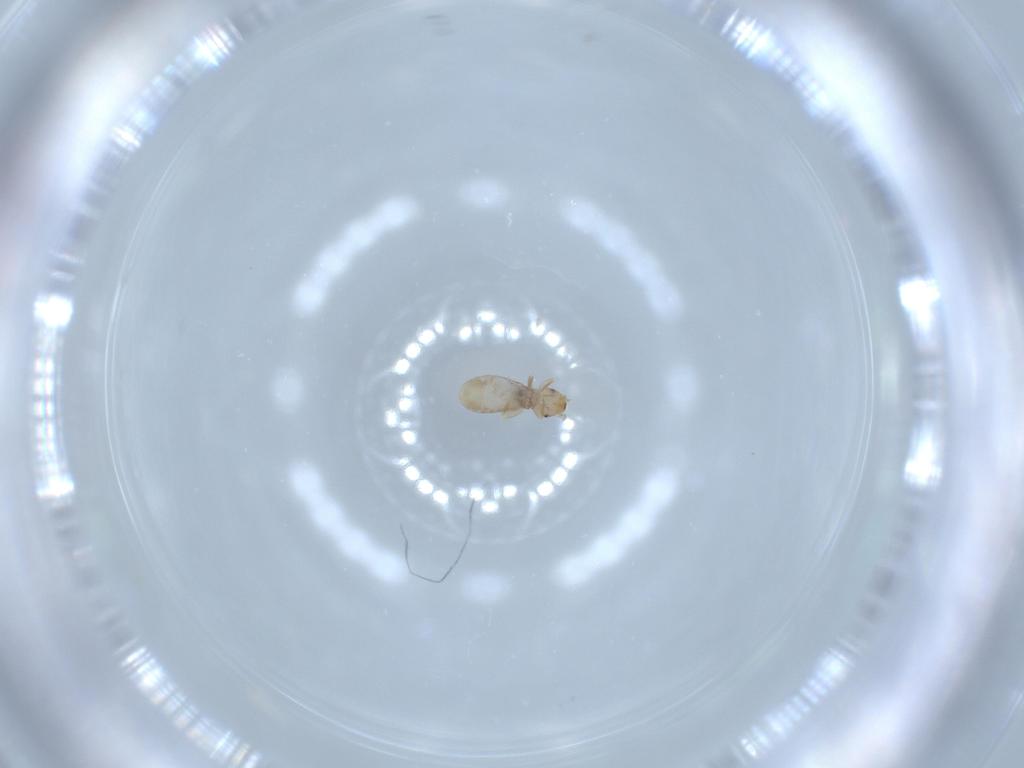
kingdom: Animalia
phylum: Arthropoda
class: Insecta
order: Psocodea
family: Liposcelididae
